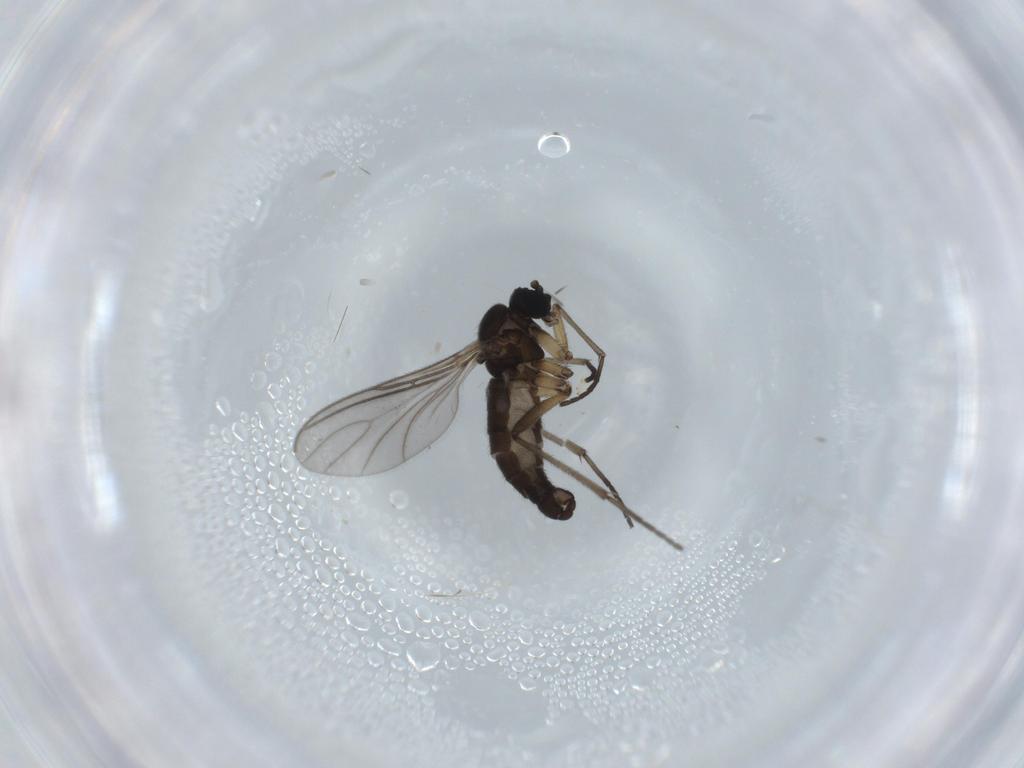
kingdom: Animalia
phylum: Arthropoda
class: Insecta
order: Diptera
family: Sciaridae
